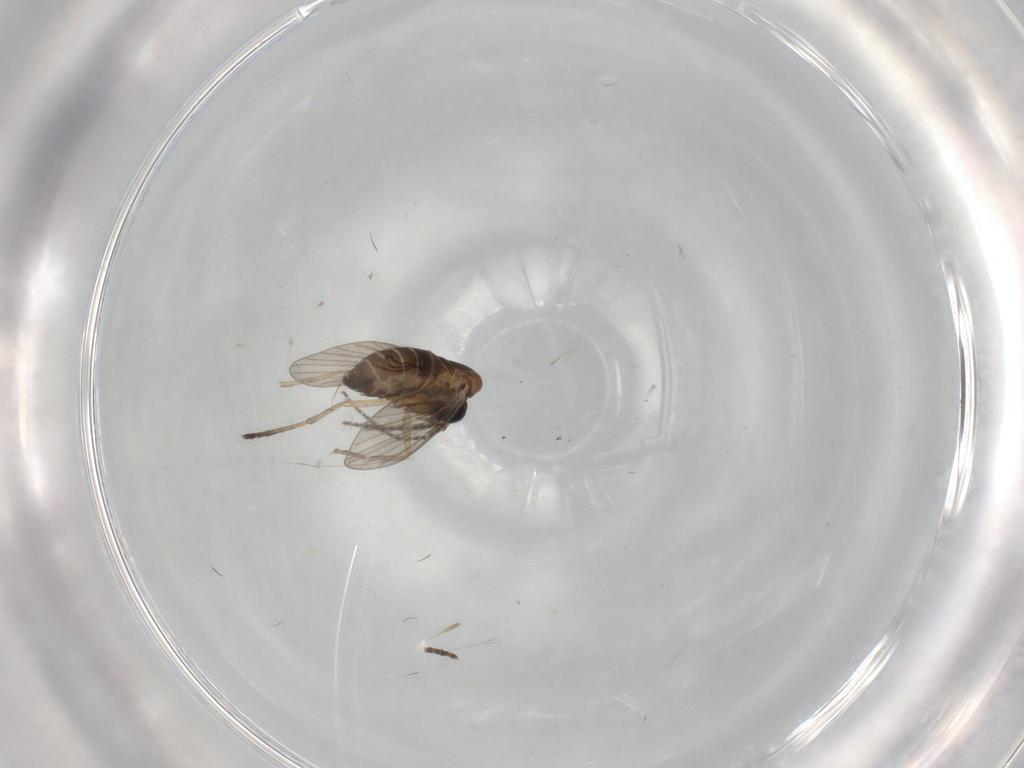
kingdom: Animalia
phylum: Arthropoda
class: Insecta
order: Diptera
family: Psychodidae
